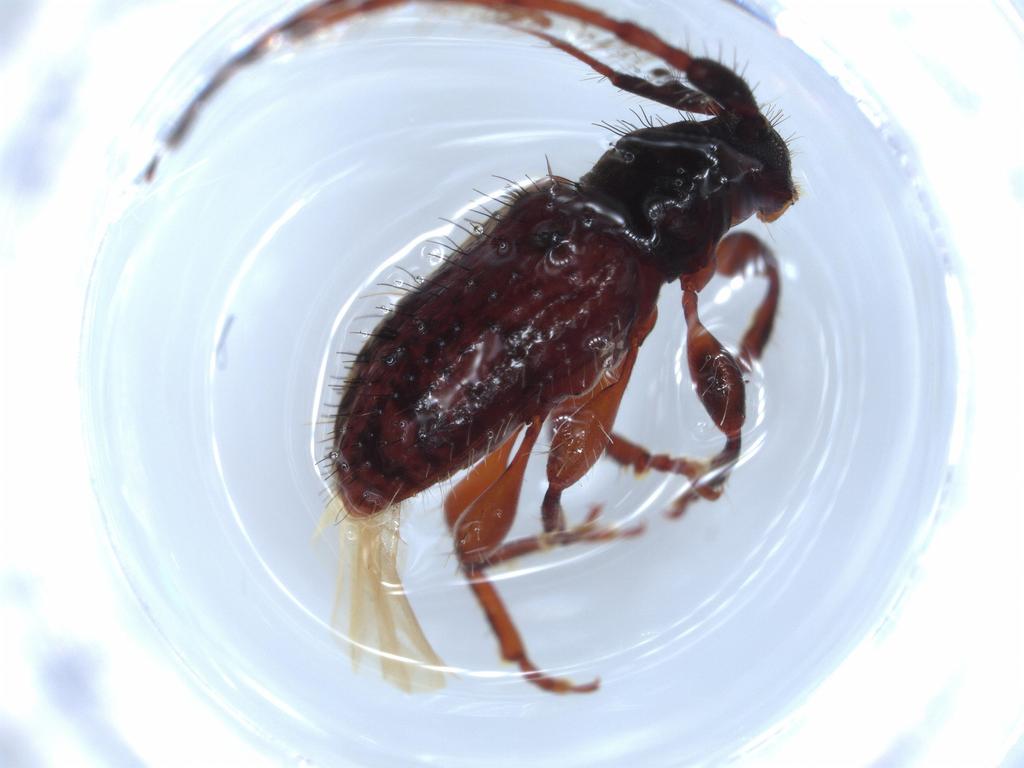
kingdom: Animalia
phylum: Arthropoda
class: Insecta
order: Coleoptera
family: Cerambycidae
